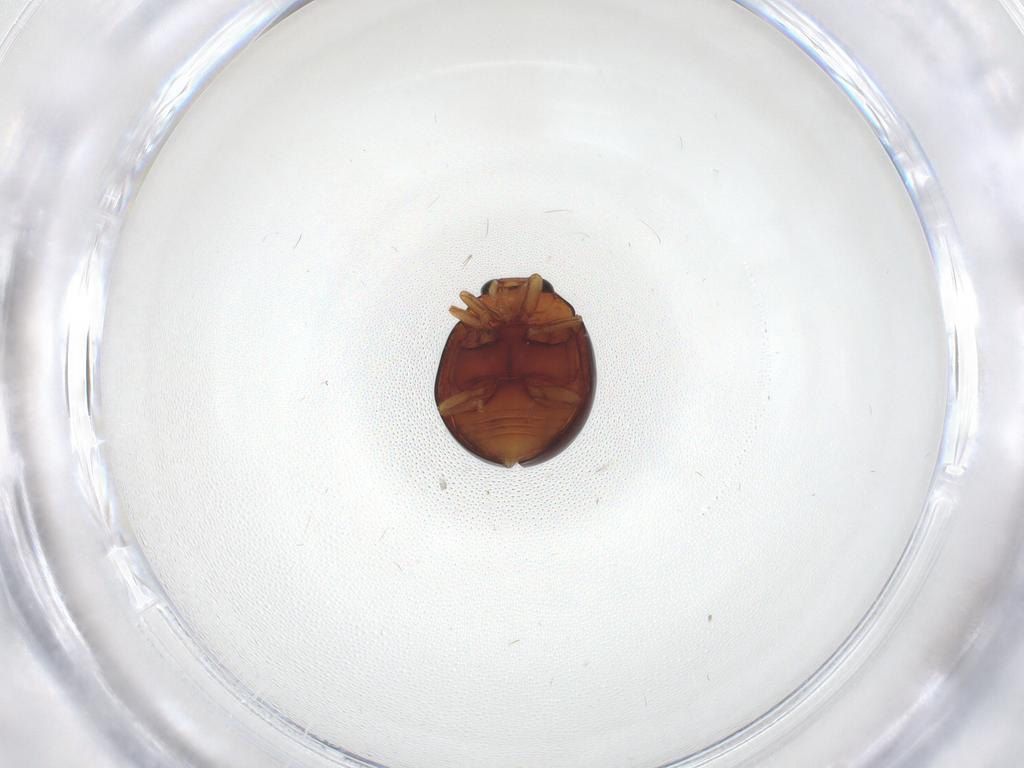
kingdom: Animalia
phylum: Arthropoda
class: Insecta
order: Coleoptera
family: Coccinellidae
